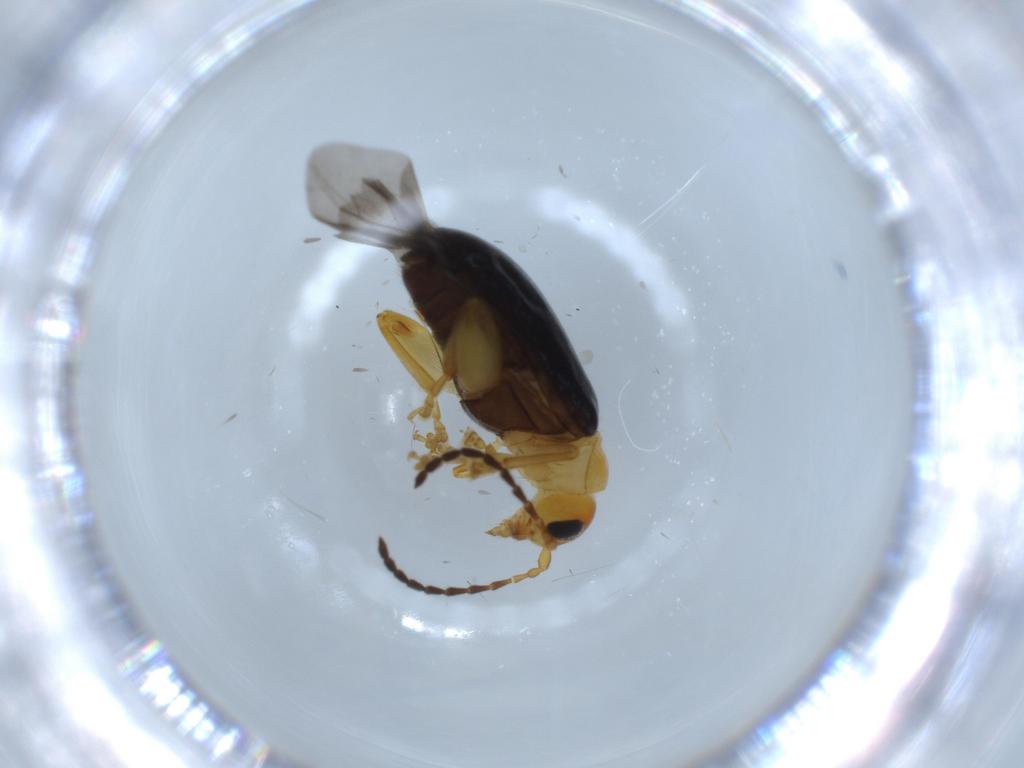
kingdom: Animalia
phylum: Arthropoda
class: Insecta
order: Coleoptera
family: Chrysomelidae
